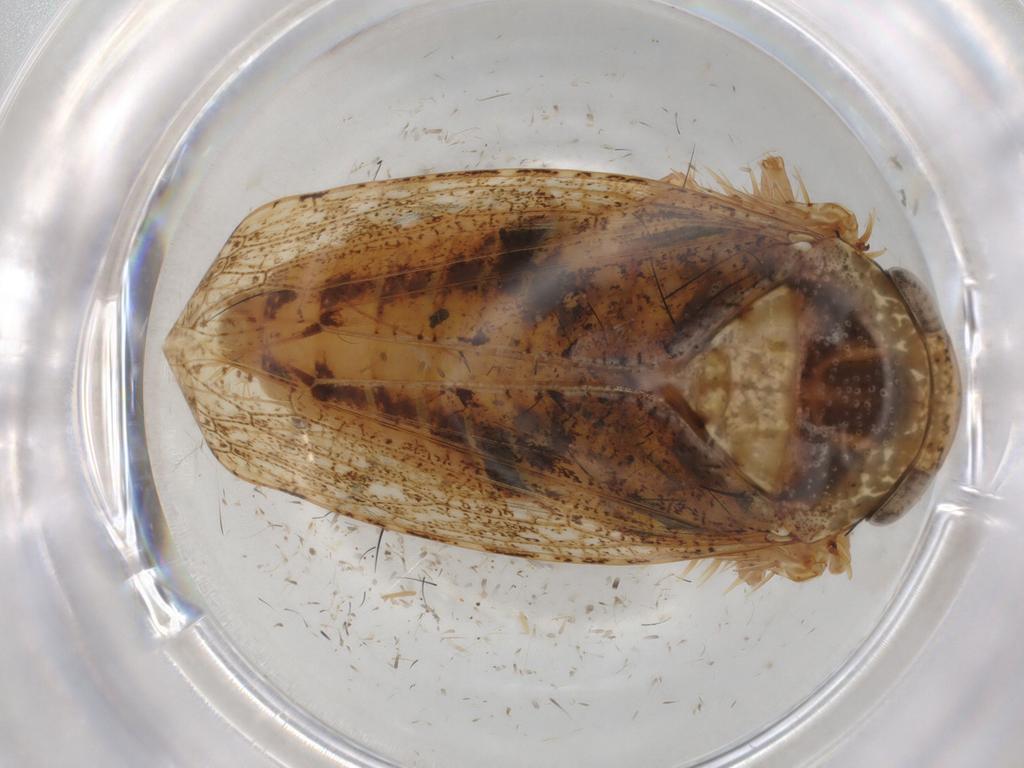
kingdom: Animalia
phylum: Arthropoda
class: Insecta
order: Hemiptera
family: Cicadellidae
